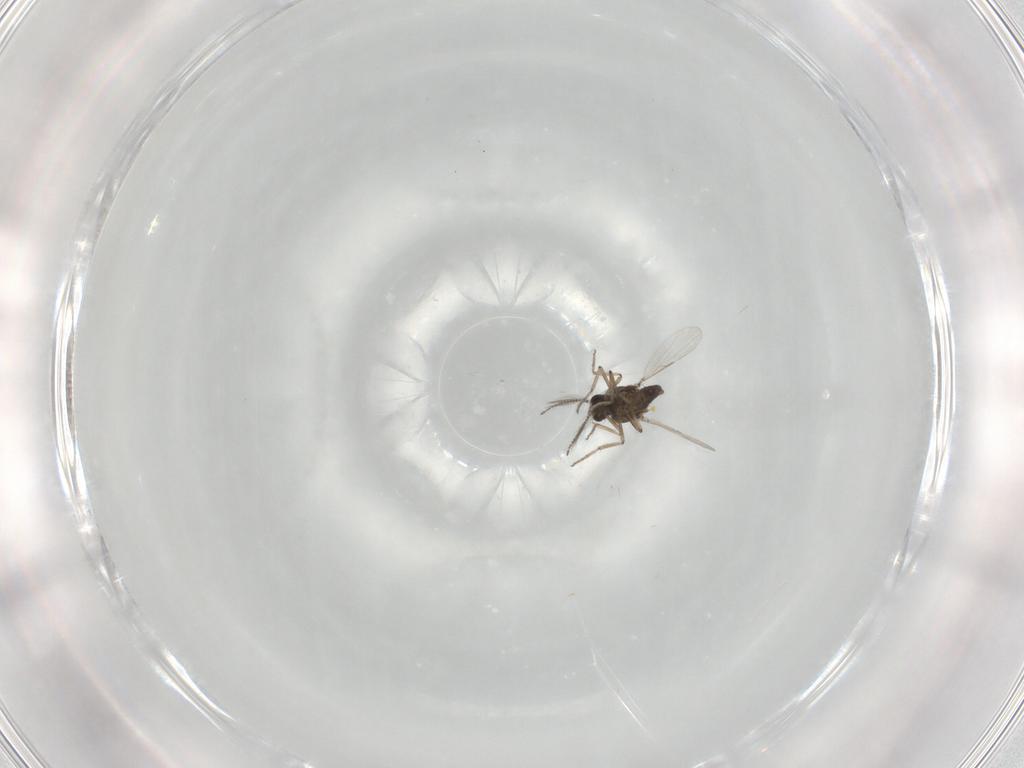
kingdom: Animalia
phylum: Arthropoda
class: Insecta
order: Diptera
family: Ceratopogonidae
